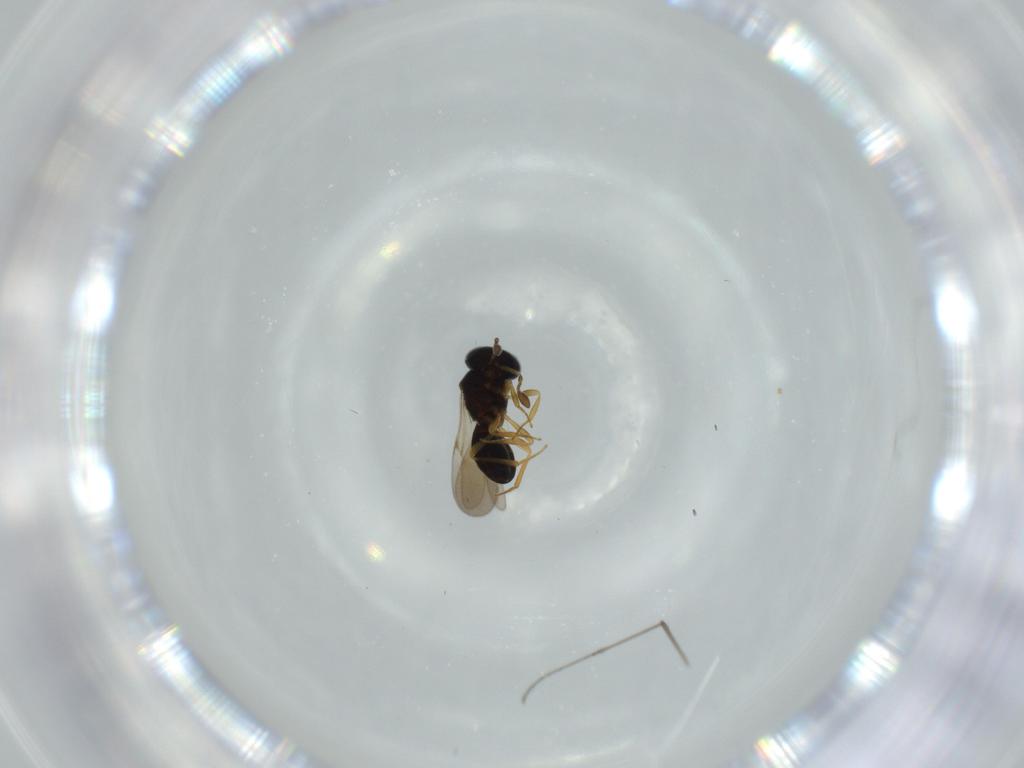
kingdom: Animalia
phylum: Arthropoda
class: Insecta
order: Hymenoptera
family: Scelionidae
